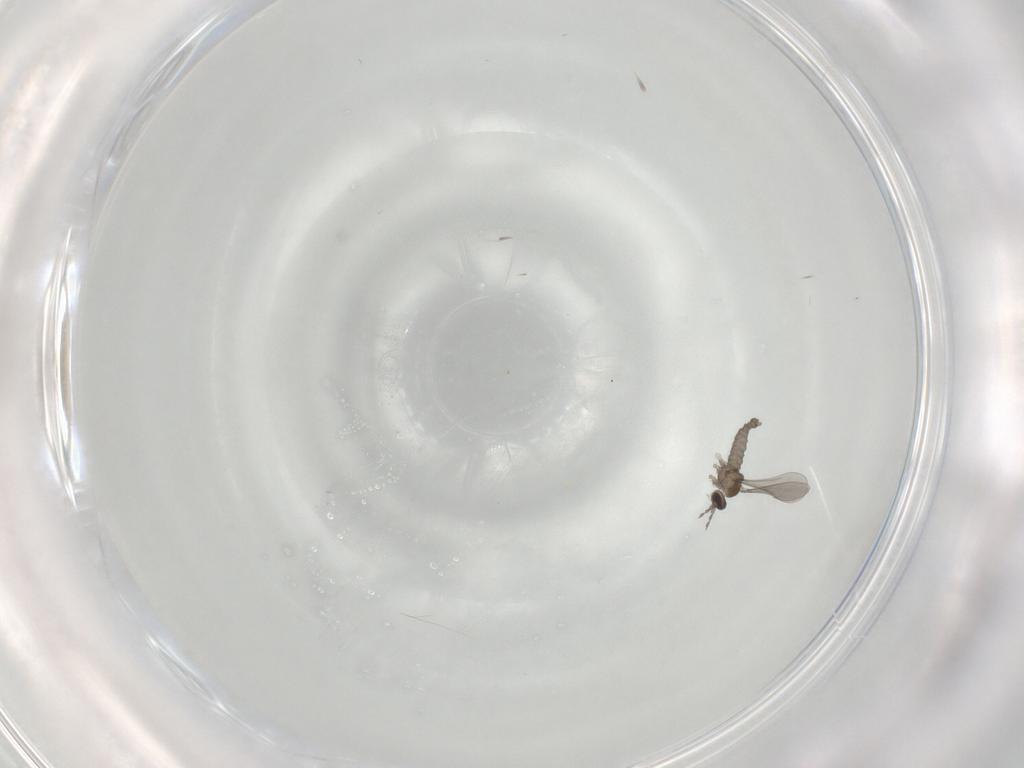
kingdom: Animalia
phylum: Arthropoda
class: Insecta
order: Diptera
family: Cecidomyiidae
